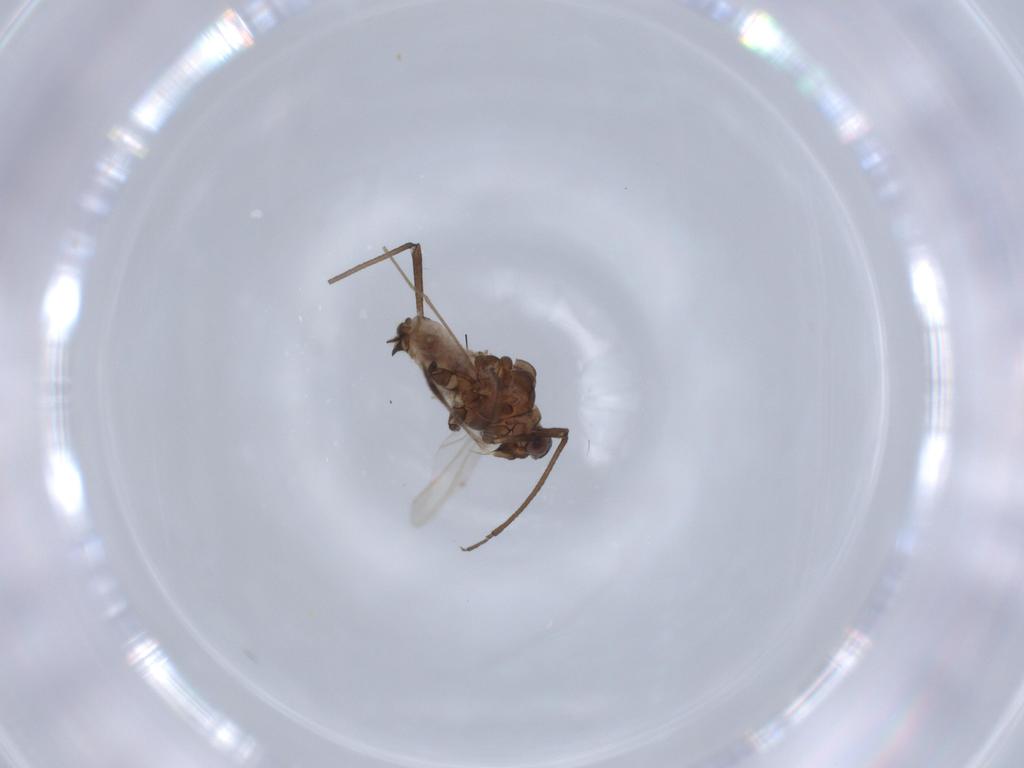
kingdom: Animalia
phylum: Arthropoda
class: Insecta
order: Hemiptera
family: Aphididae
